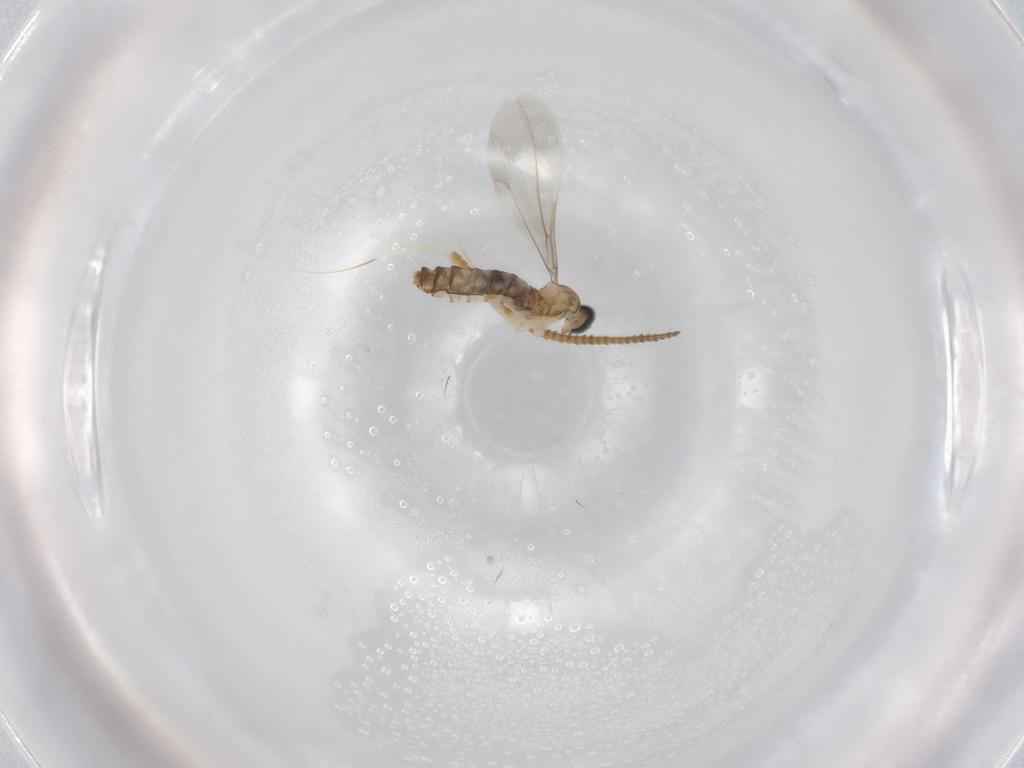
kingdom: Animalia
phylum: Arthropoda
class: Insecta
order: Diptera
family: Cecidomyiidae
